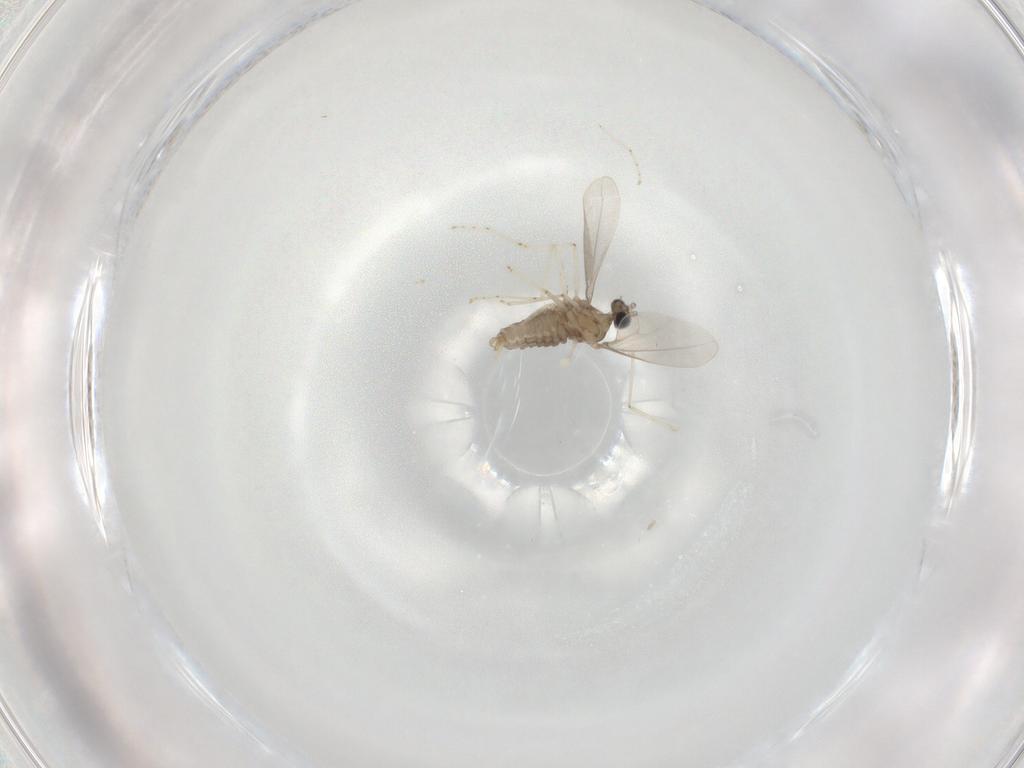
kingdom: Animalia
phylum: Arthropoda
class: Insecta
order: Diptera
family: Cecidomyiidae
